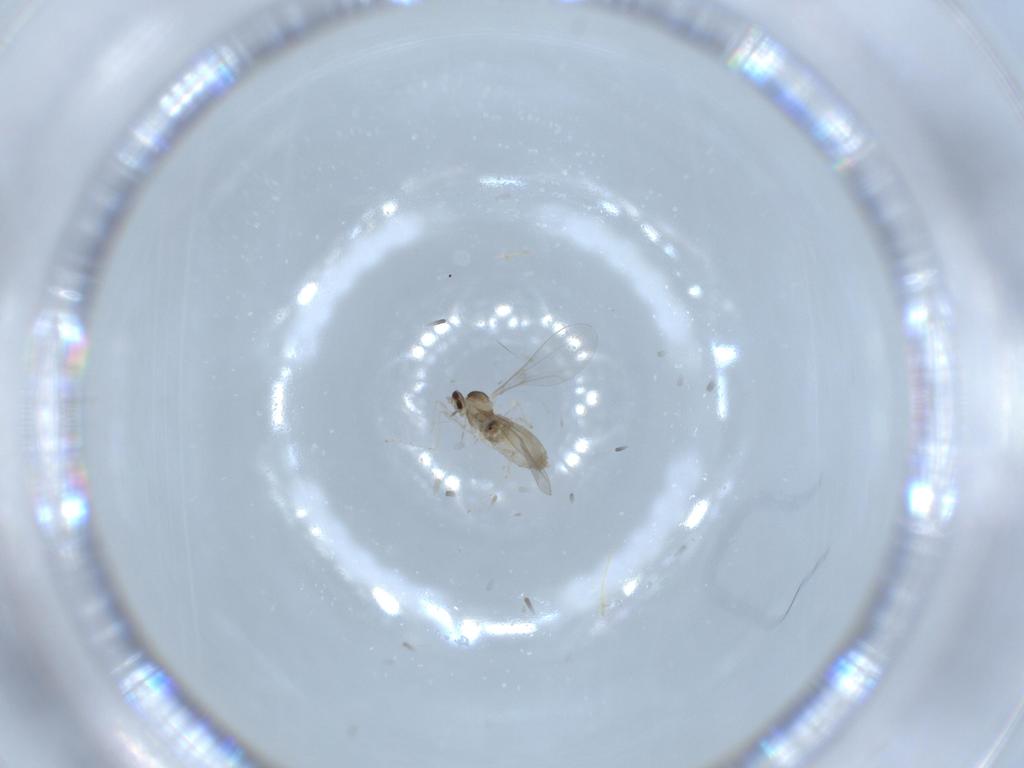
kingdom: Animalia
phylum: Arthropoda
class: Insecta
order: Diptera
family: Cecidomyiidae
